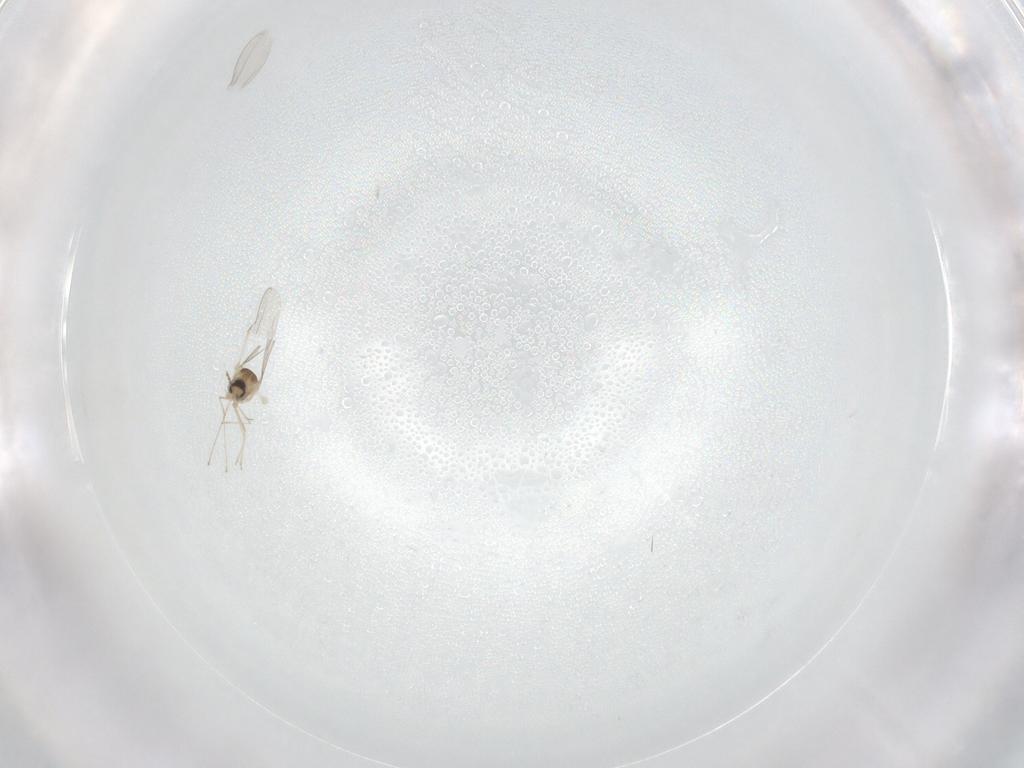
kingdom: Animalia
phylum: Arthropoda
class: Insecta
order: Diptera
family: Cecidomyiidae
